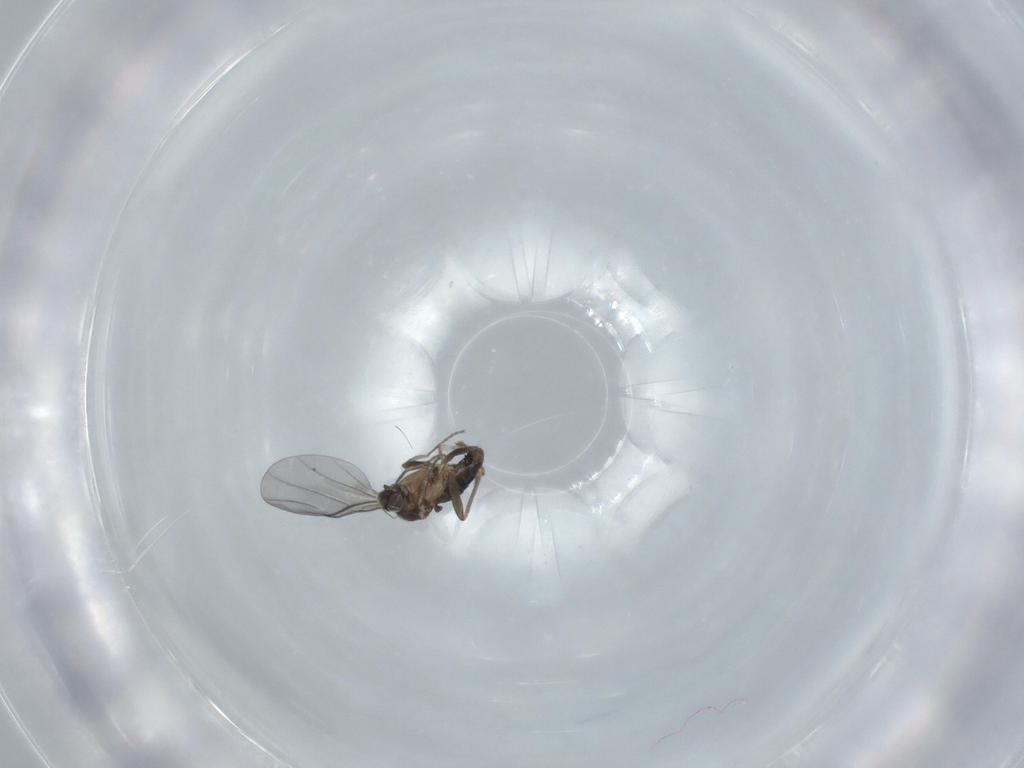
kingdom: Animalia
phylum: Arthropoda
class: Insecta
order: Diptera
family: Phoridae
